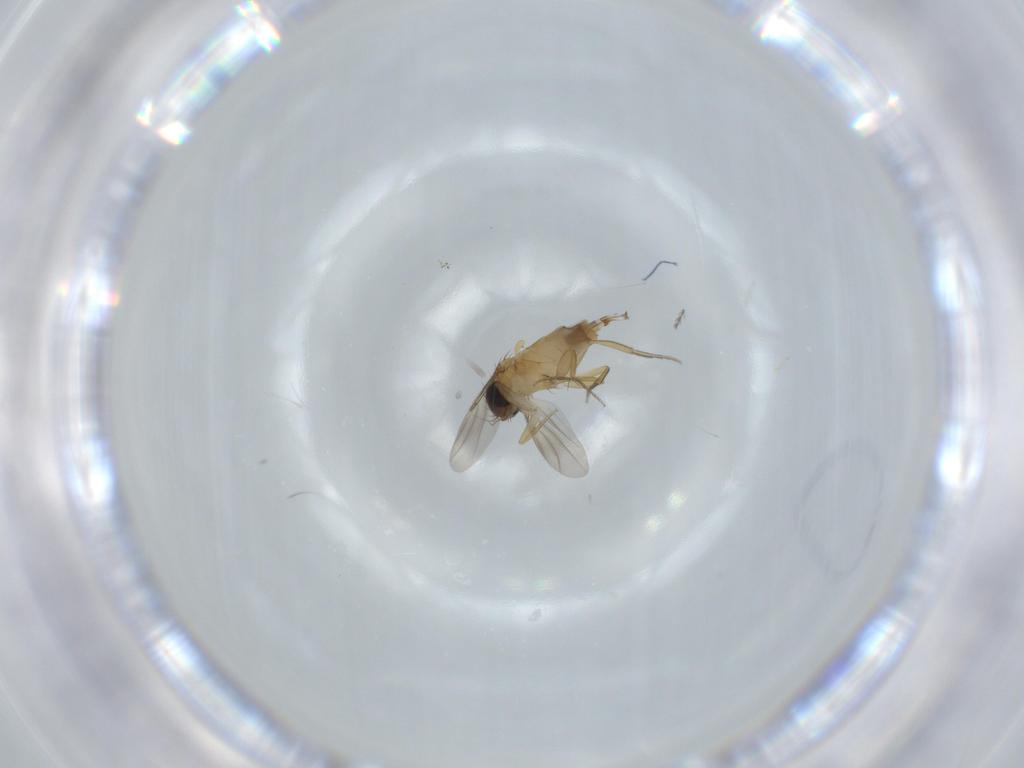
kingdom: Animalia
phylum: Arthropoda
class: Insecta
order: Diptera
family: Phoridae
